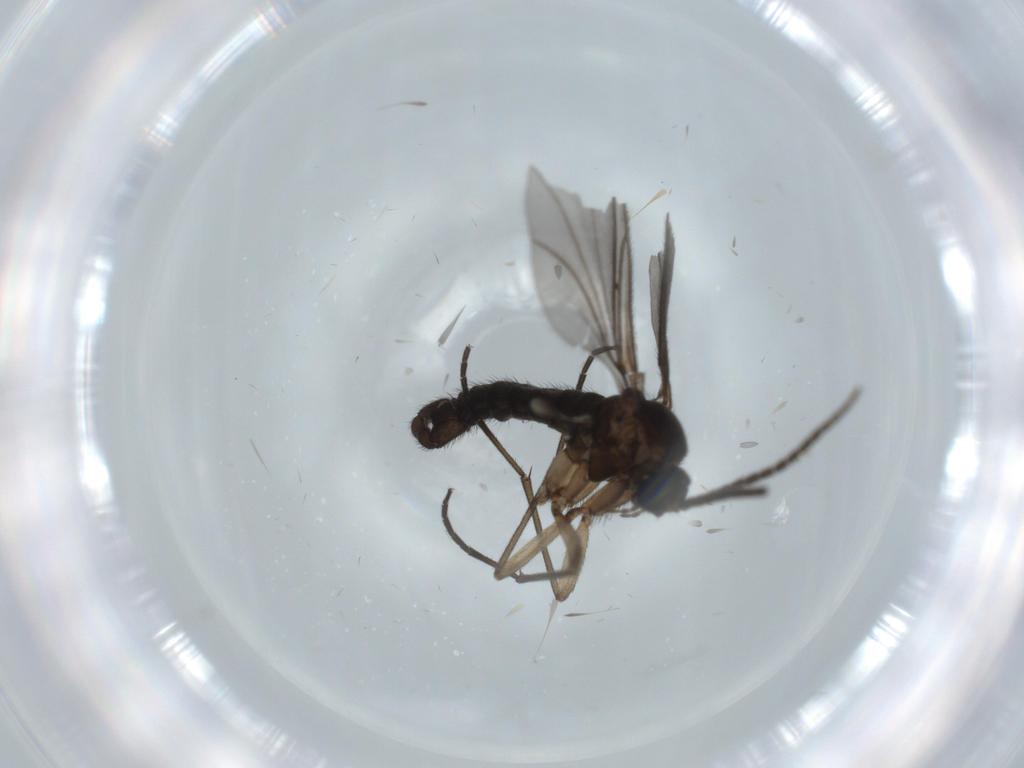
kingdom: Animalia
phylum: Arthropoda
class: Insecta
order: Diptera
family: Sciaridae
